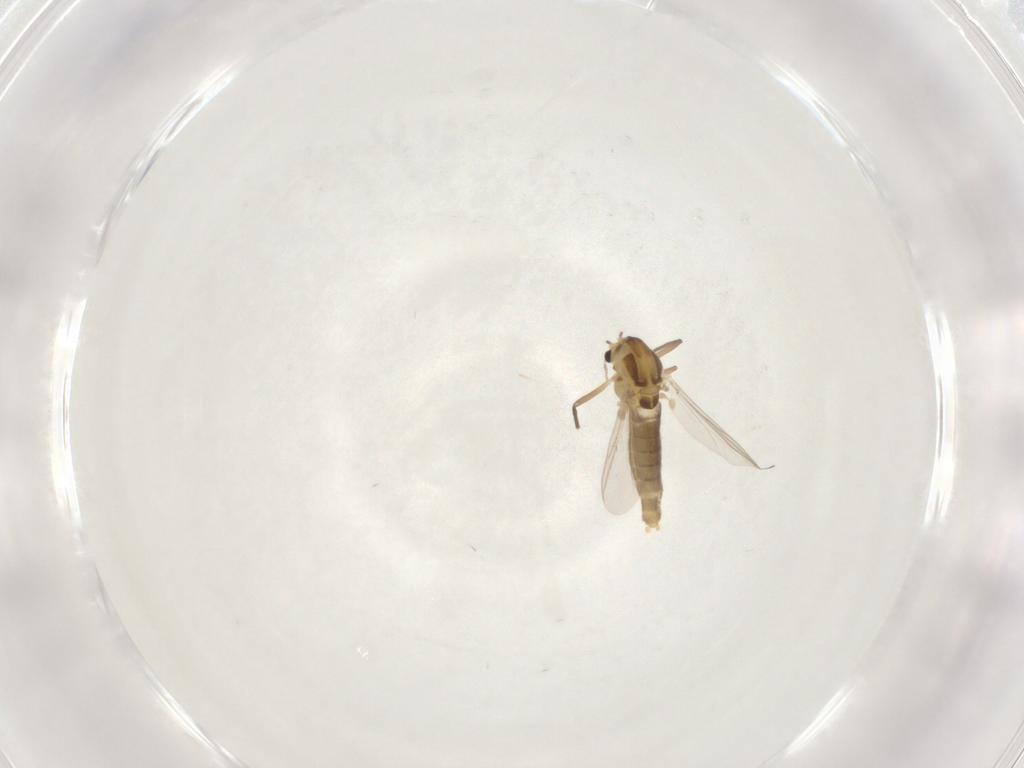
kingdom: Animalia
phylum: Arthropoda
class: Insecta
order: Diptera
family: Chironomidae
